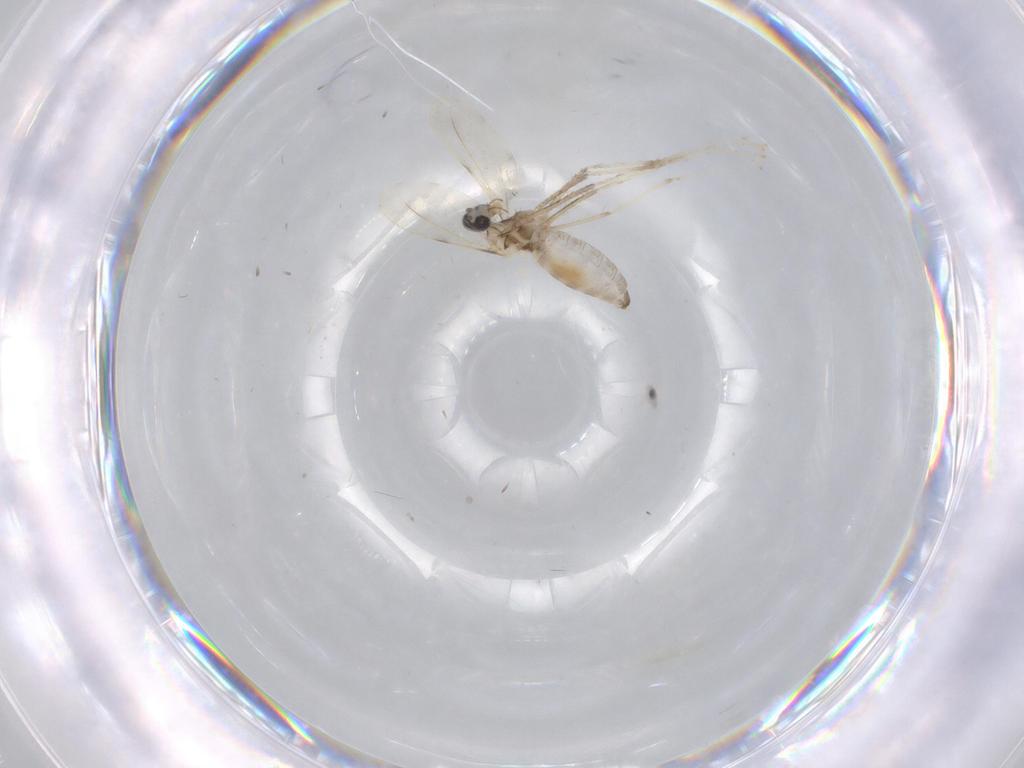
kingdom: Animalia
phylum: Arthropoda
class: Insecta
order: Diptera
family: Cecidomyiidae
